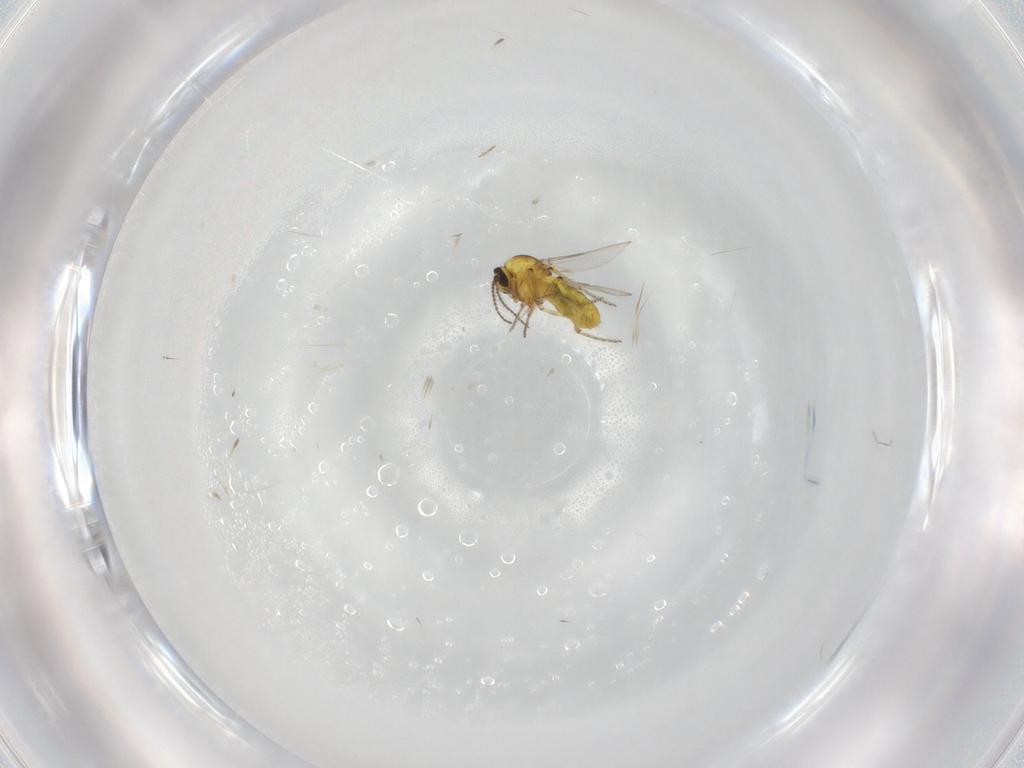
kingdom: Animalia
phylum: Arthropoda
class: Insecta
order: Diptera
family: Ceratopogonidae
